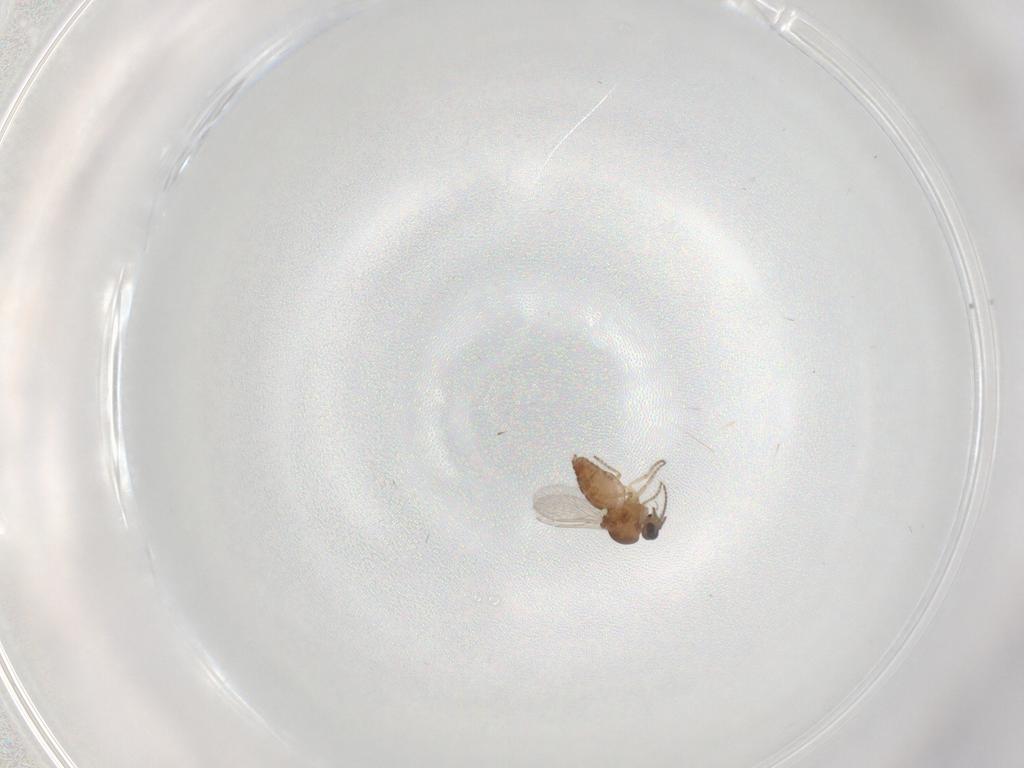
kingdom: Animalia
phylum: Arthropoda
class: Insecta
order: Diptera
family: Ceratopogonidae
